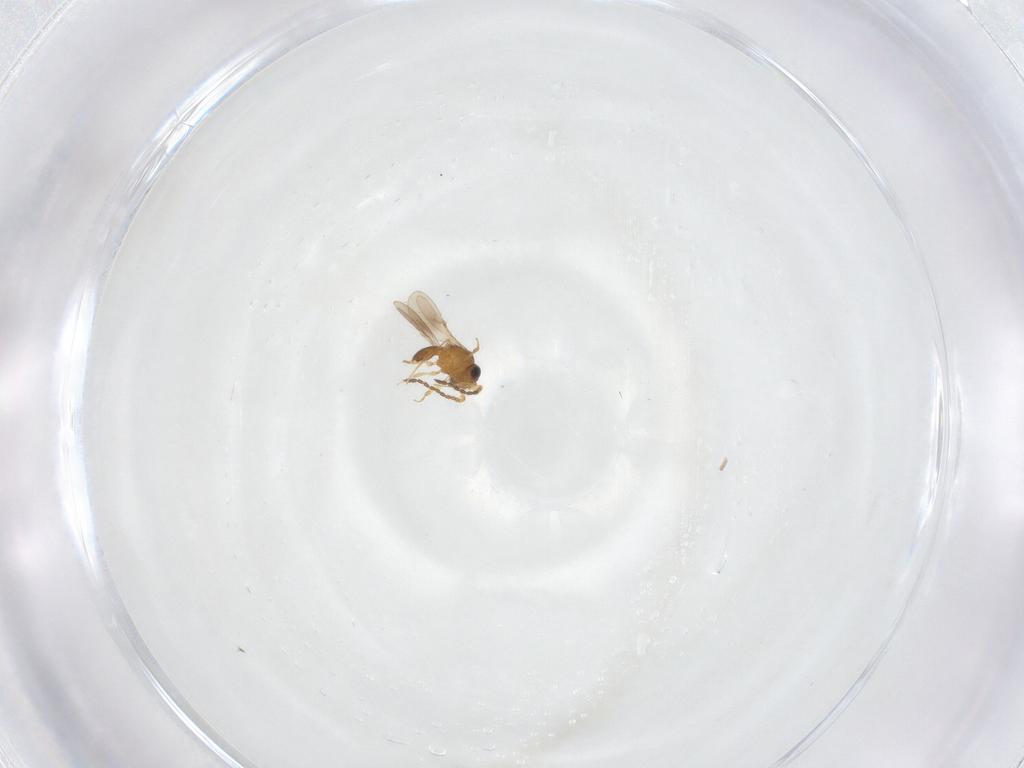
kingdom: Animalia
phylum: Arthropoda
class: Insecta
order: Hymenoptera
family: Scelionidae
